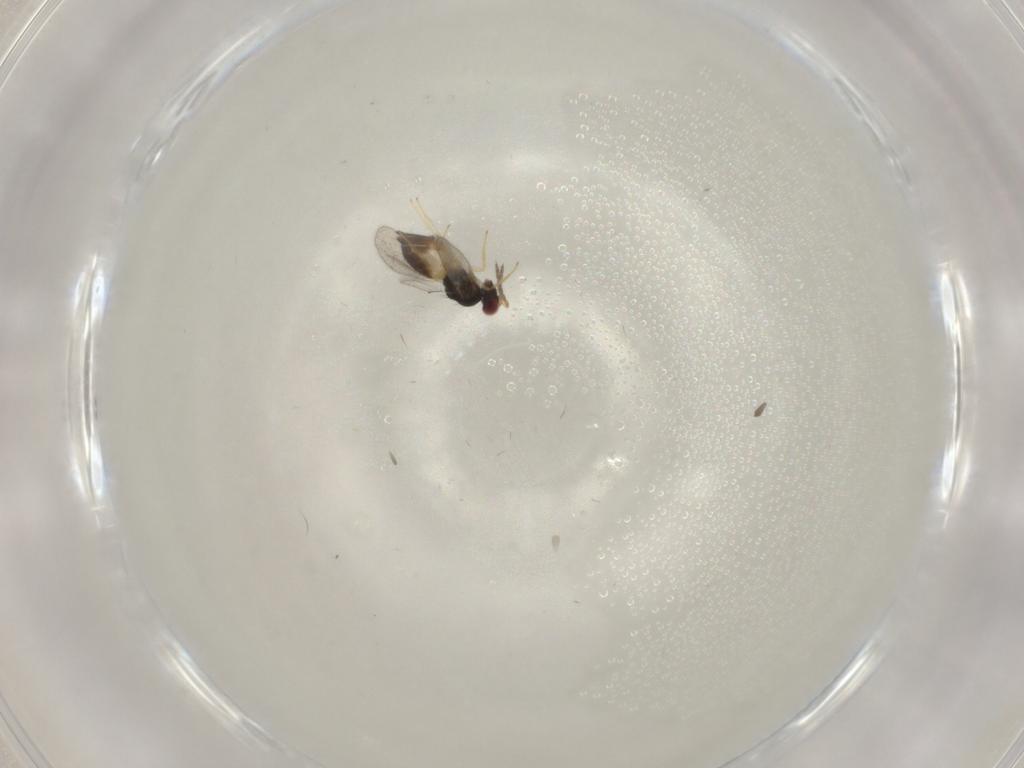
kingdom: Animalia
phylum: Arthropoda
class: Insecta
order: Hymenoptera
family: Eulophidae
